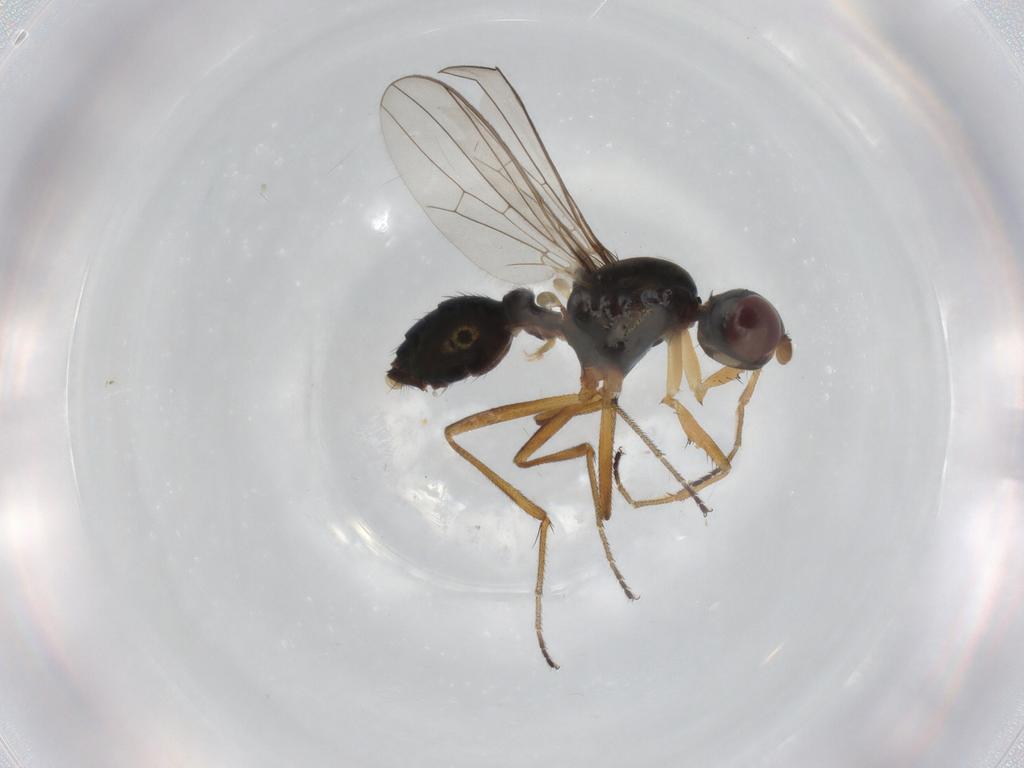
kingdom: Animalia
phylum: Arthropoda
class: Insecta
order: Diptera
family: Sepsidae
